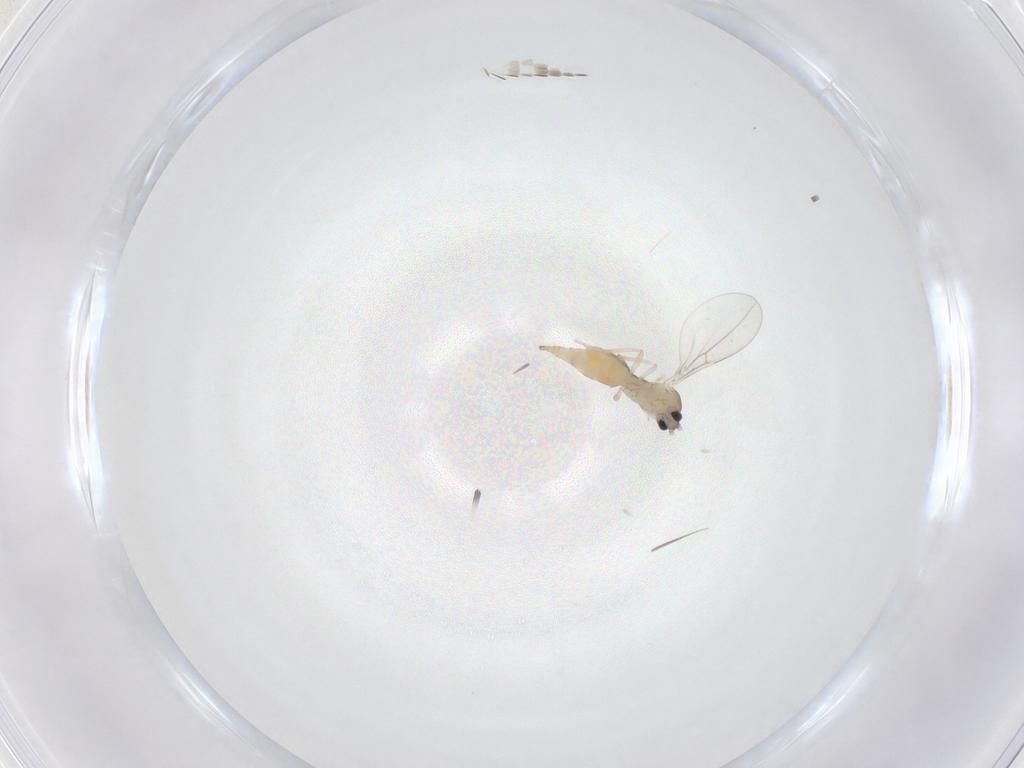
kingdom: Animalia
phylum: Arthropoda
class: Insecta
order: Diptera
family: Cecidomyiidae
